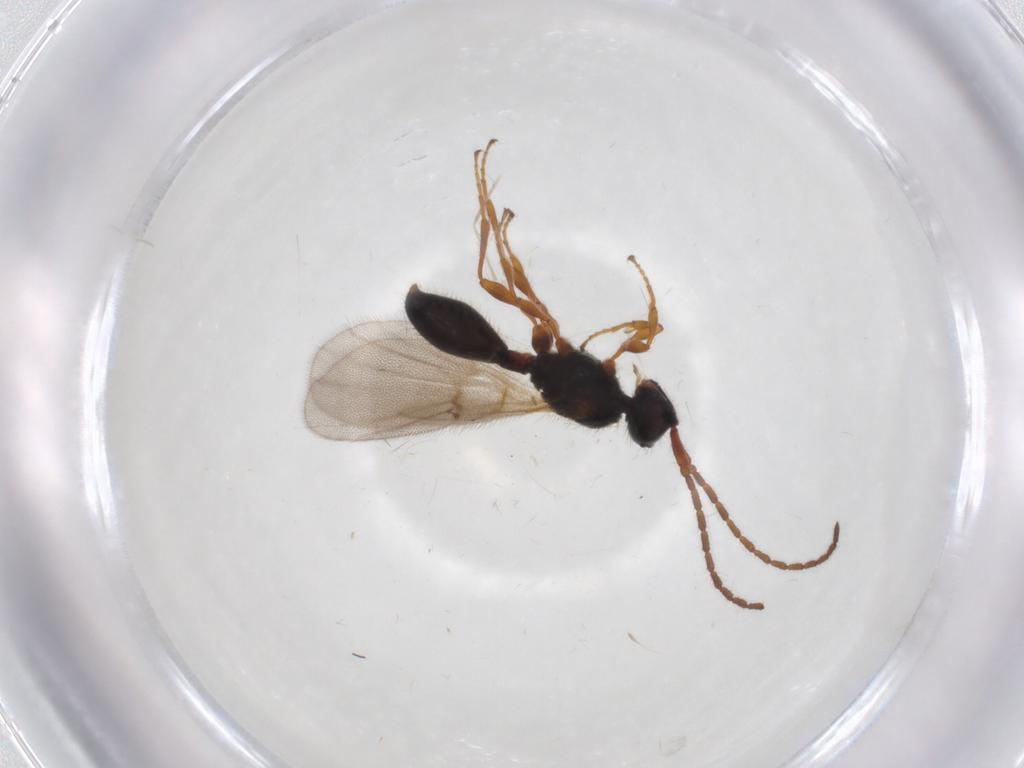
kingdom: Animalia
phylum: Arthropoda
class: Insecta
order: Hymenoptera
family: Diapriidae
